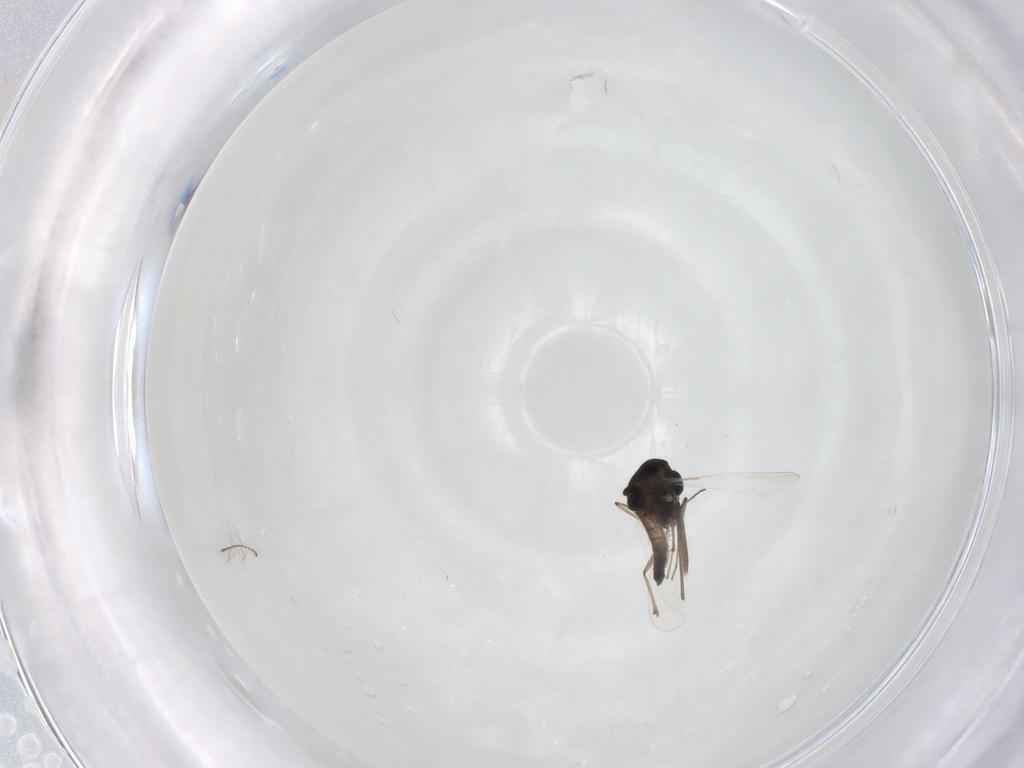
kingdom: Animalia
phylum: Arthropoda
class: Insecta
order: Diptera
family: Chironomidae
